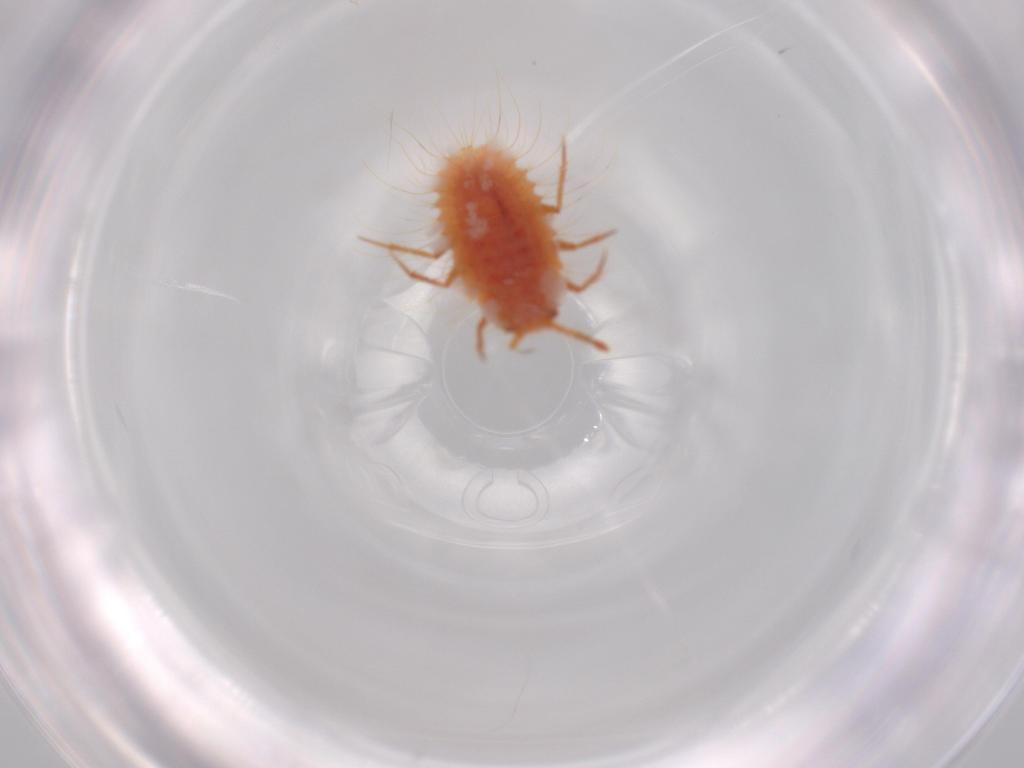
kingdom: Animalia
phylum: Arthropoda
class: Insecta
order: Hemiptera
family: Coccoidea_incertae_sedis
